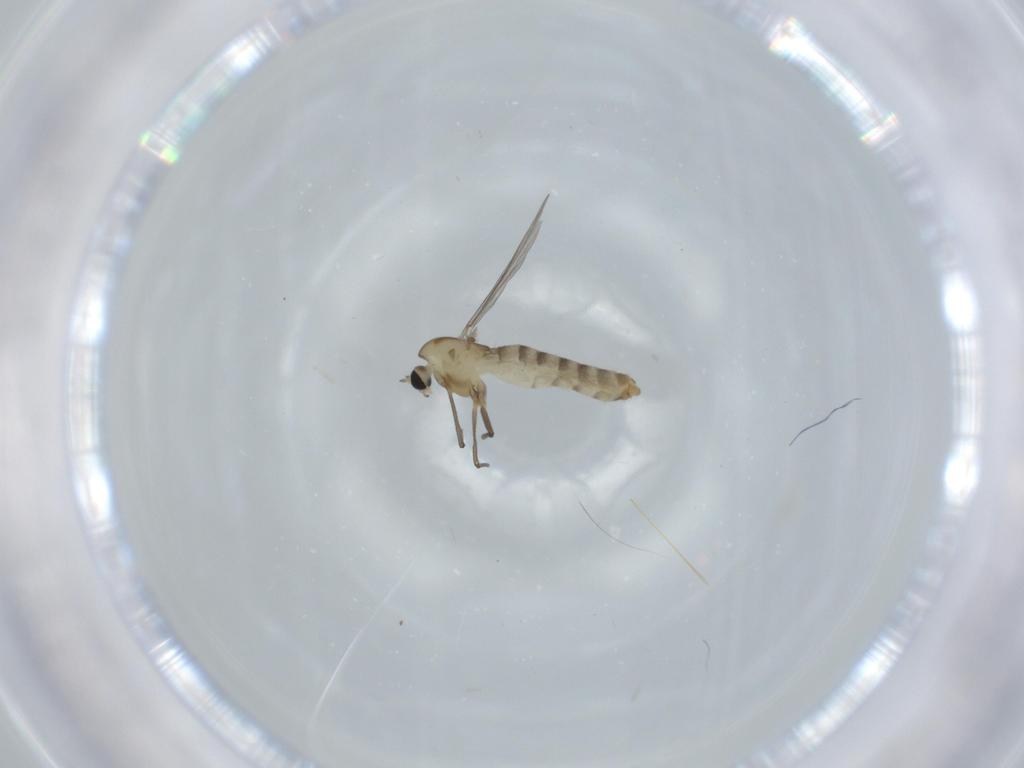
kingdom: Animalia
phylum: Arthropoda
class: Insecta
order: Diptera
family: Chironomidae
